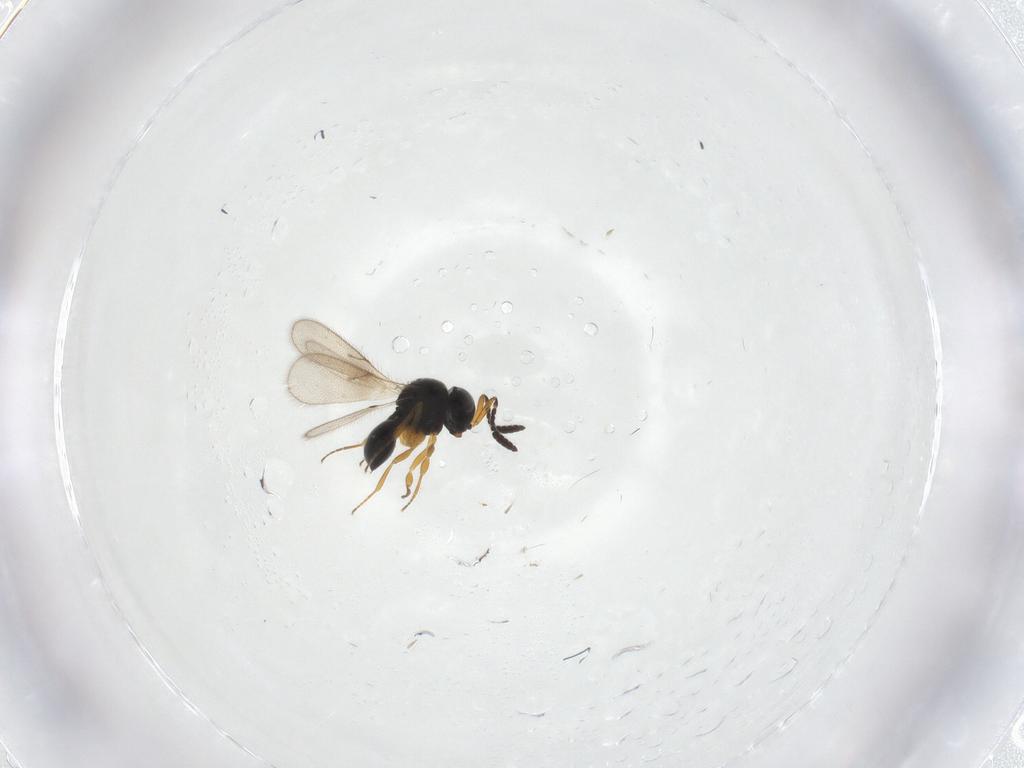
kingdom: Animalia
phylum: Arthropoda
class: Insecta
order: Hymenoptera
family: Scelionidae
